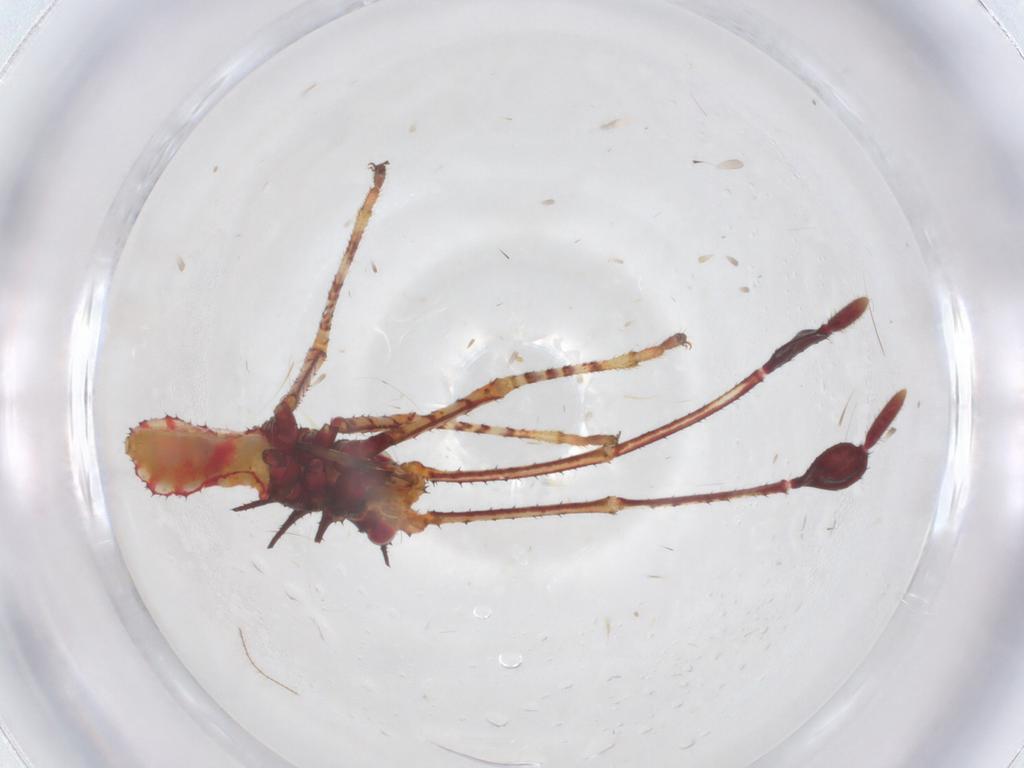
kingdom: Animalia
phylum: Arthropoda
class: Insecta
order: Hemiptera
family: Coreidae
